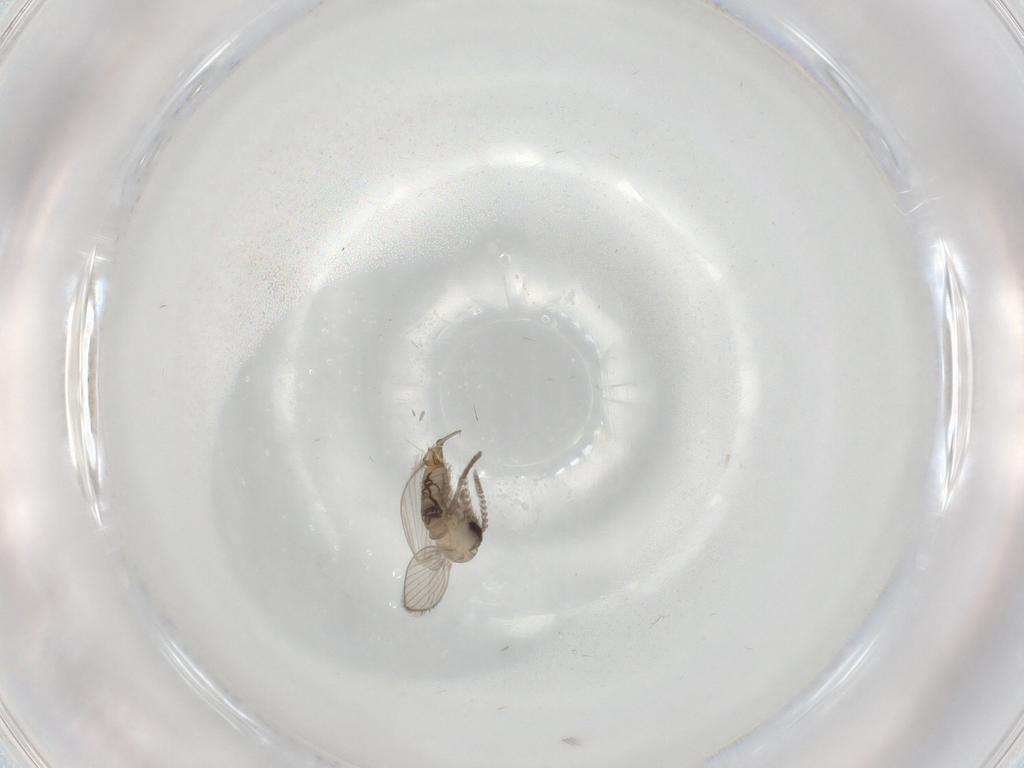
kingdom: Animalia
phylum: Arthropoda
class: Insecta
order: Diptera
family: Psychodidae
